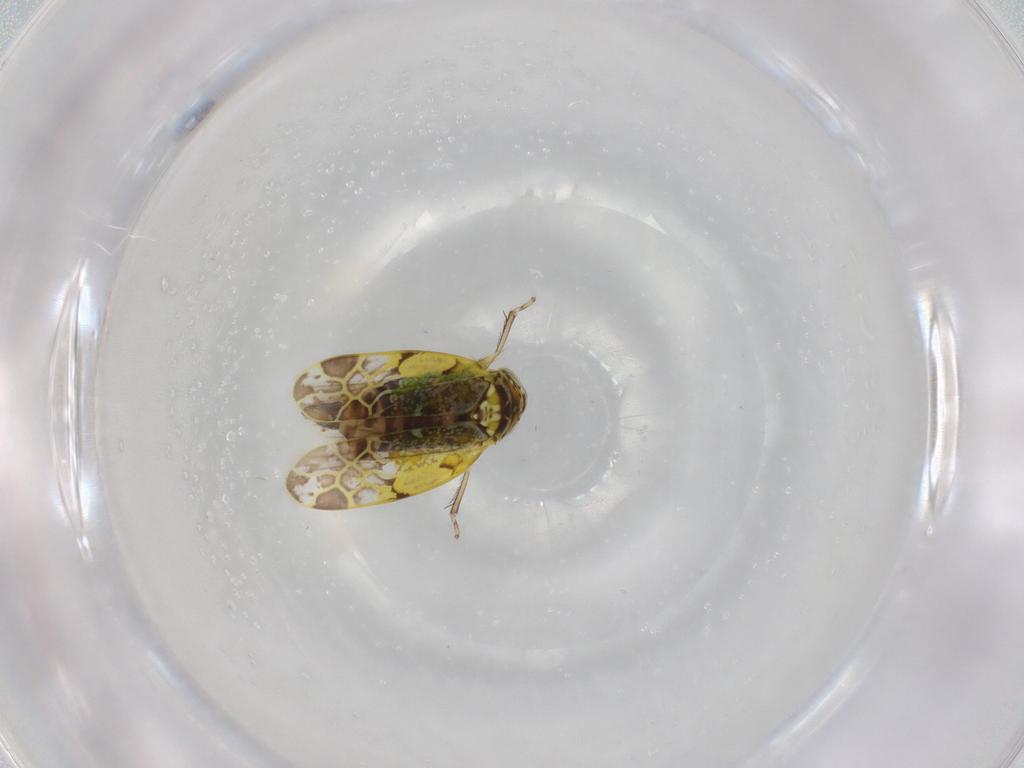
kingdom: Animalia
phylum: Arthropoda
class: Insecta
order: Hemiptera
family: Cicadellidae
